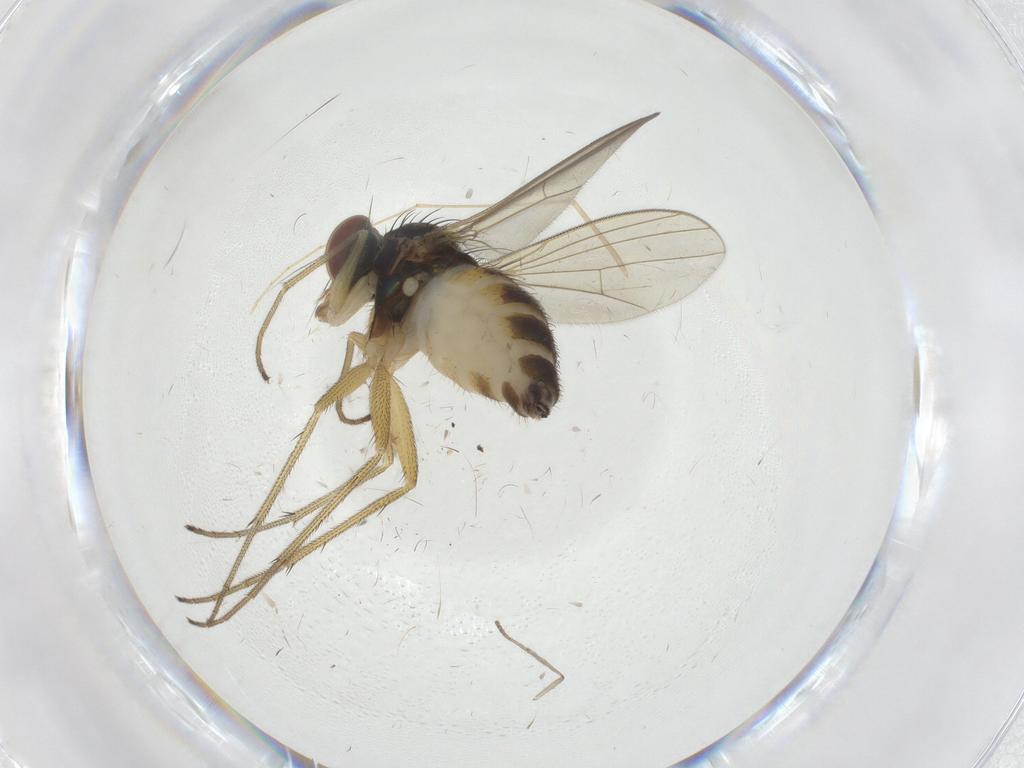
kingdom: Animalia
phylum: Arthropoda
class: Insecta
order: Diptera
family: Dolichopodidae
